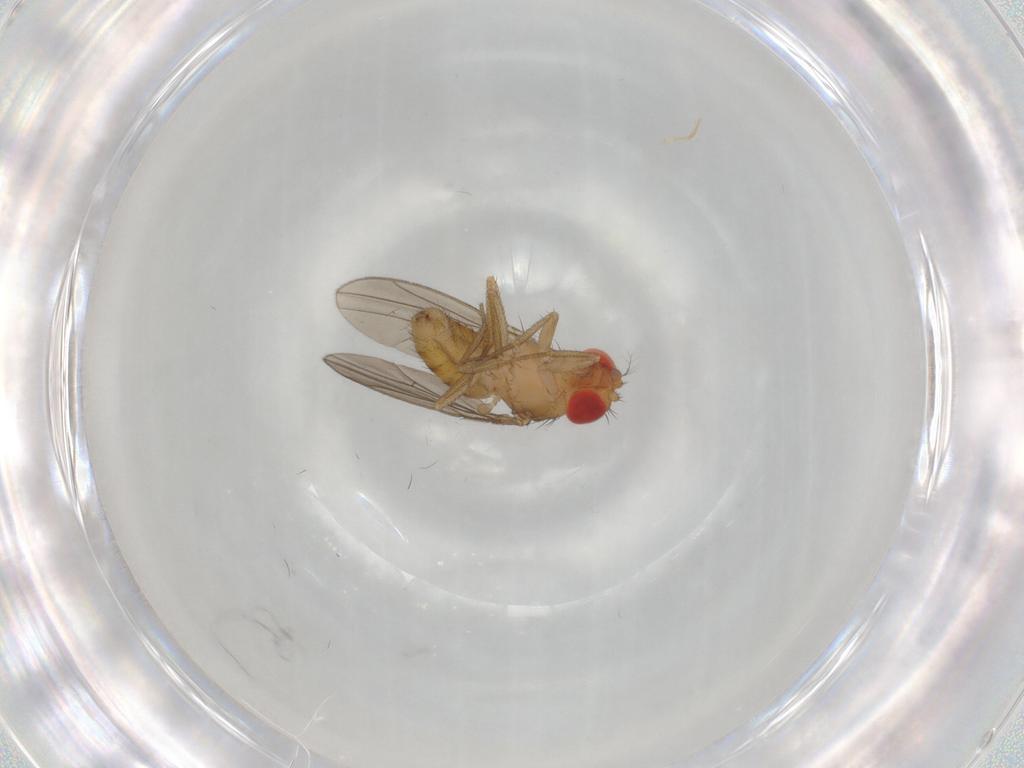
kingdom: Animalia
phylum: Arthropoda
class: Insecta
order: Diptera
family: Drosophilidae
